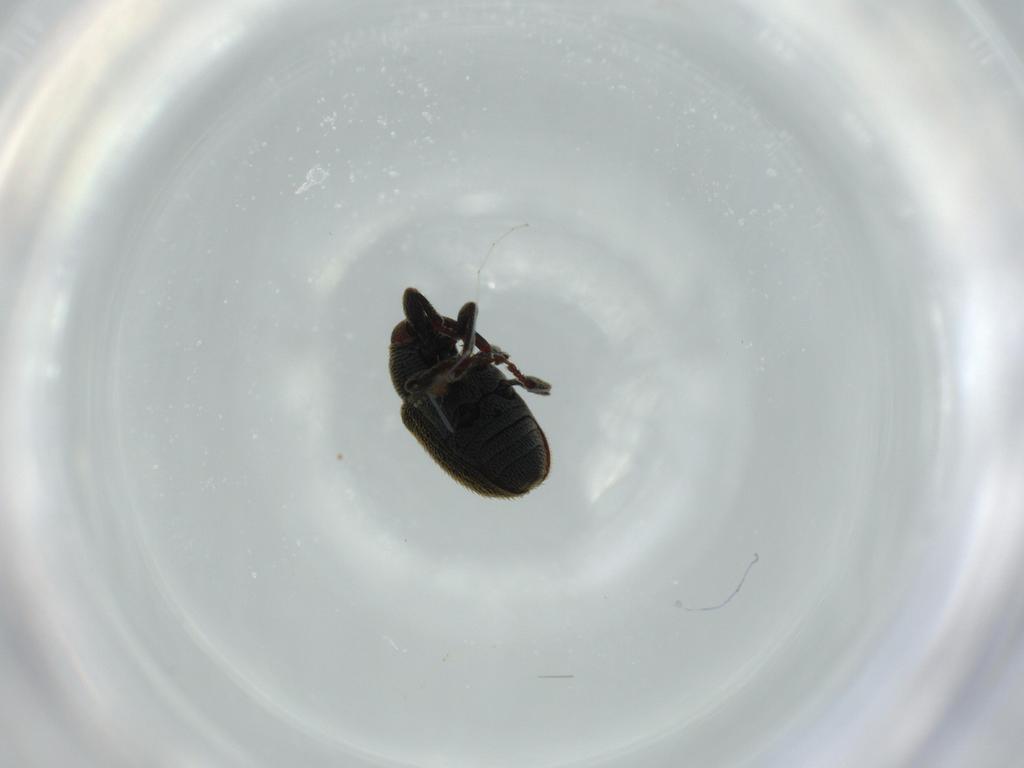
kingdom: Animalia
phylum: Arthropoda
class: Insecta
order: Coleoptera
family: Curculionidae
